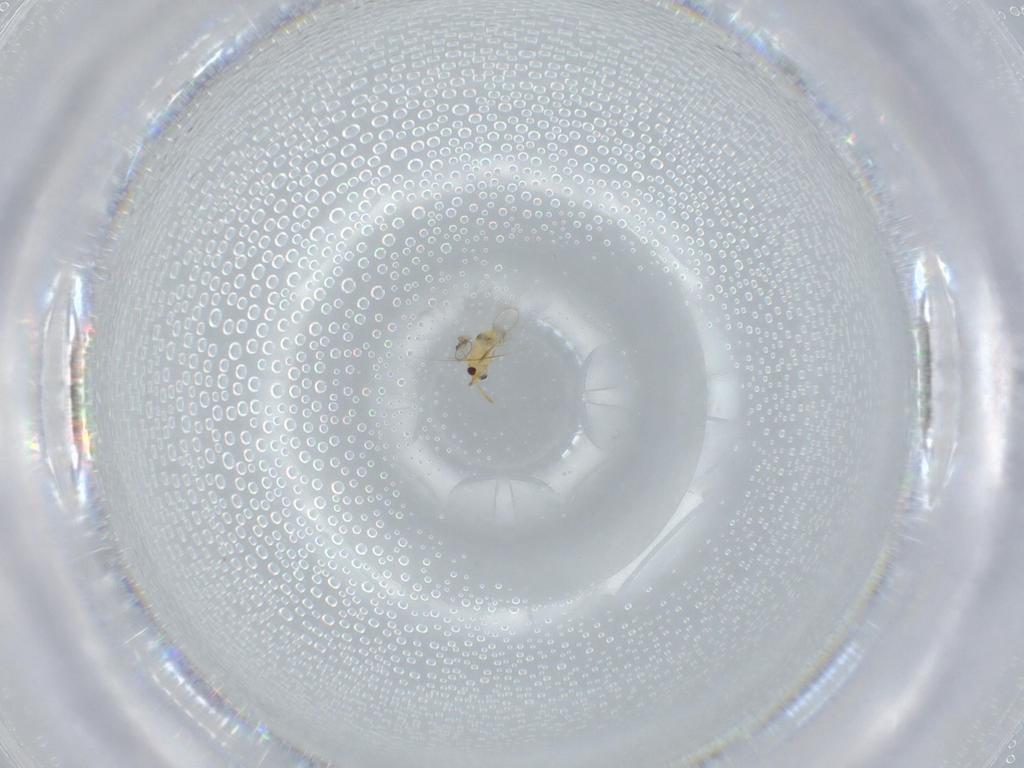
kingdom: Animalia
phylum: Arthropoda
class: Insecta
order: Hymenoptera
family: Aphelinidae
